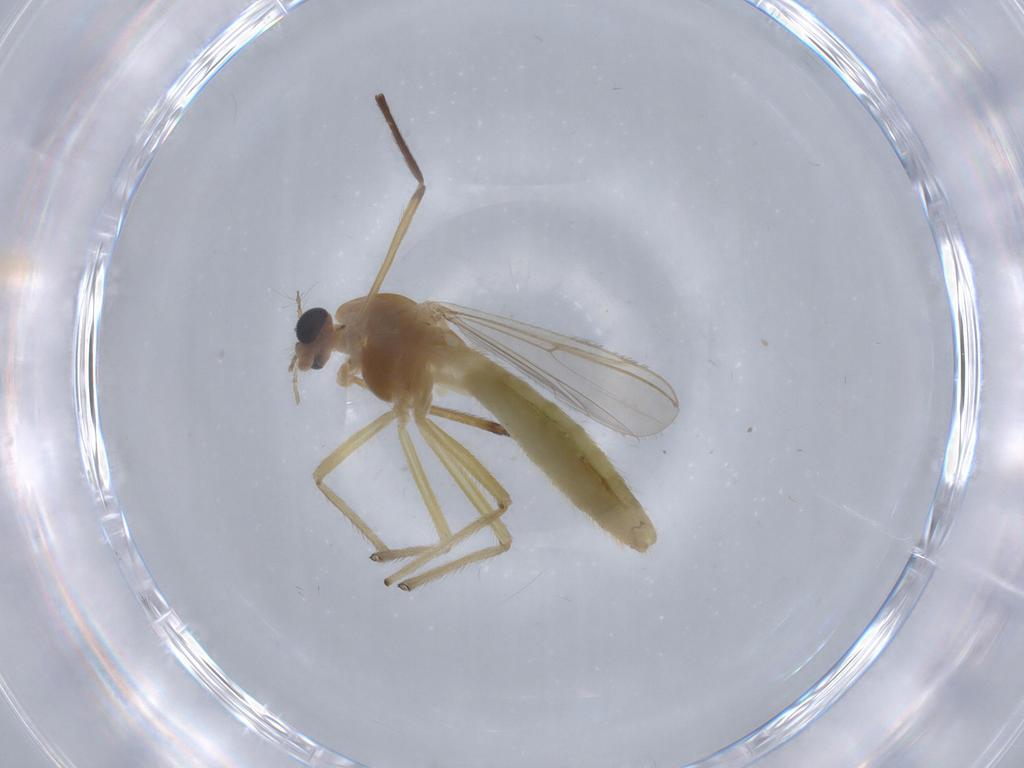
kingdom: Animalia
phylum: Arthropoda
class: Insecta
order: Diptera
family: Chironomidae
